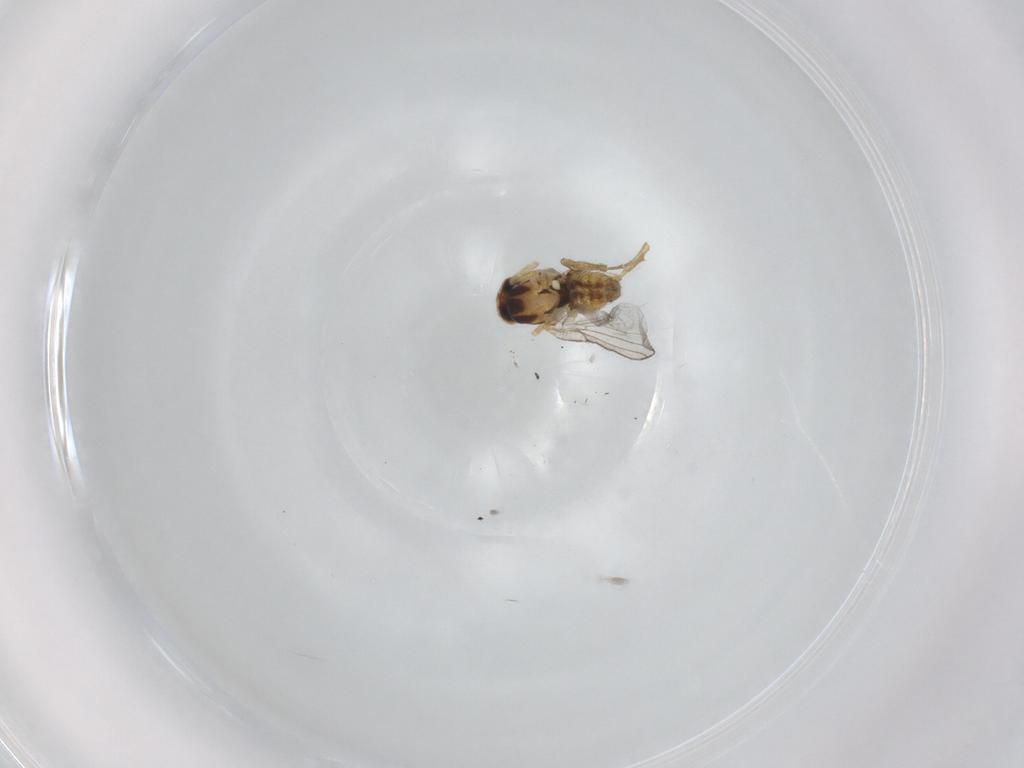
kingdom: Animalia
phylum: Arthropoda
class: Insecta
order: Diptera
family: Agromyzidae
